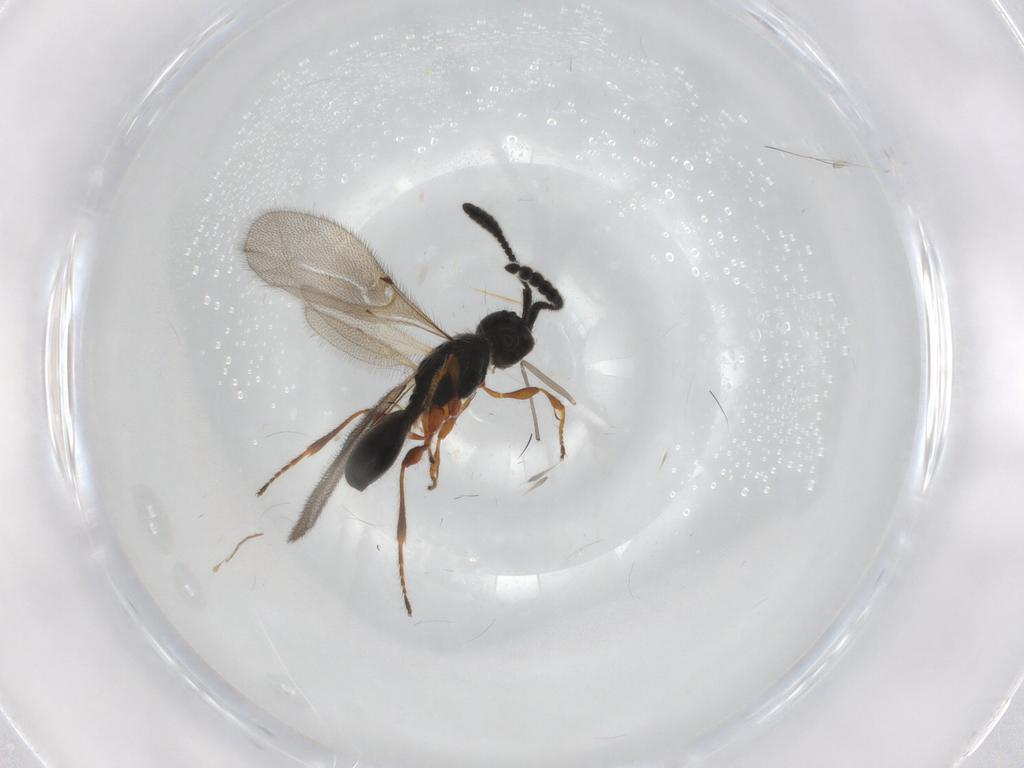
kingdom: Animalia
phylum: Arthropoda
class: Insecta
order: Hymenoptera
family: Diapriidae
